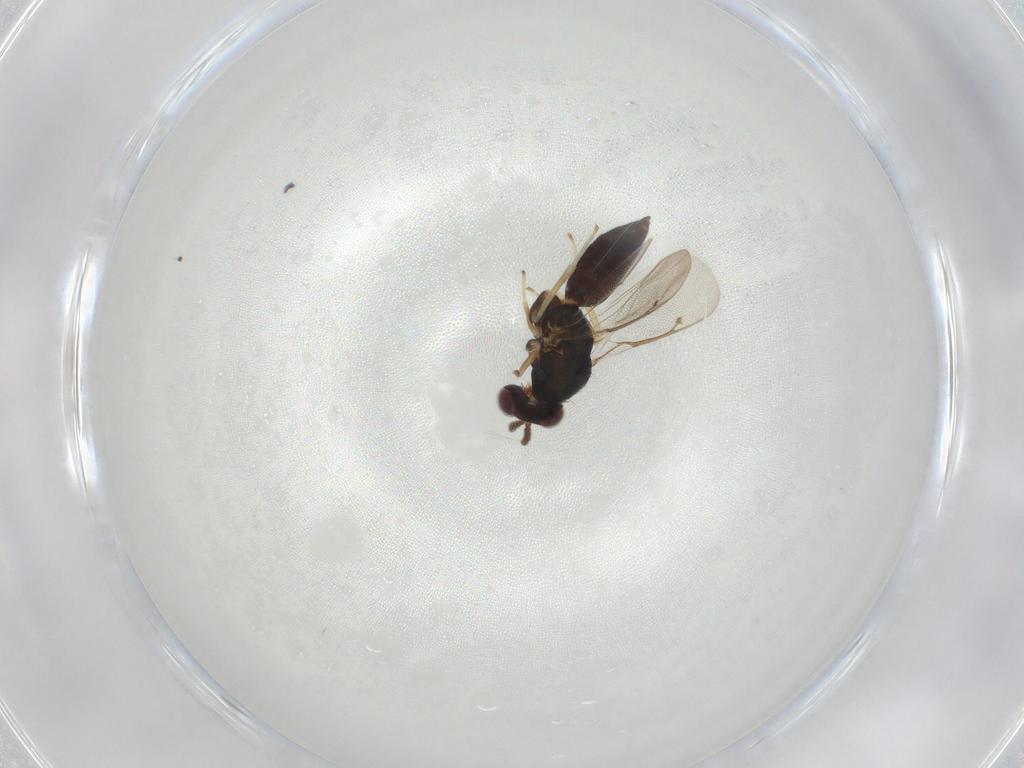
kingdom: Animalia
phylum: Arthropoda
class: Insecta
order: Hymenoptera
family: Eulophidae
